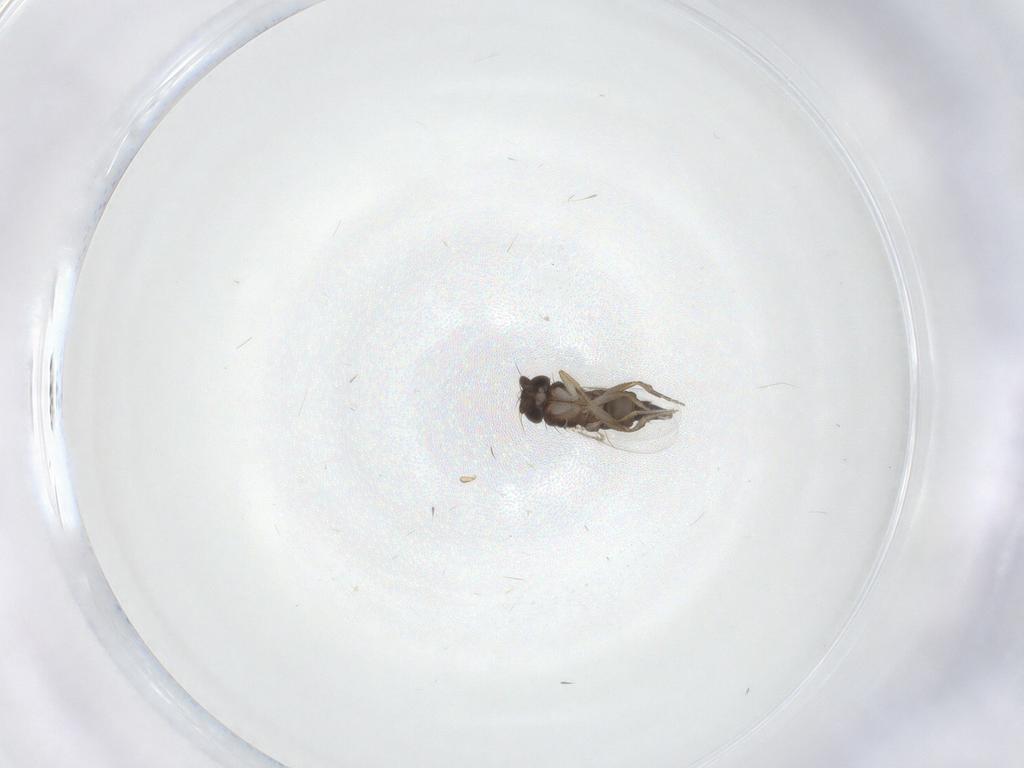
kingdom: Animalia
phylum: Arthropoda
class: Insecta
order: Diptera
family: Phoridae
